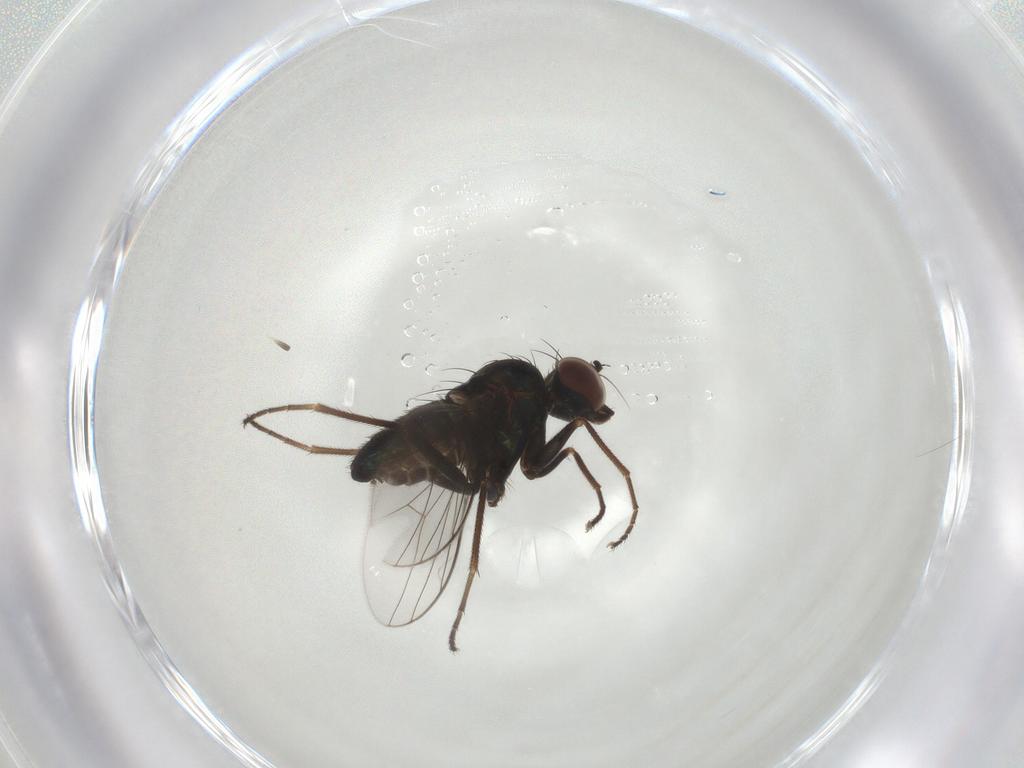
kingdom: Animalia
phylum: Arthropoda
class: Insecta
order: Diptera
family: Dolichopodidae
